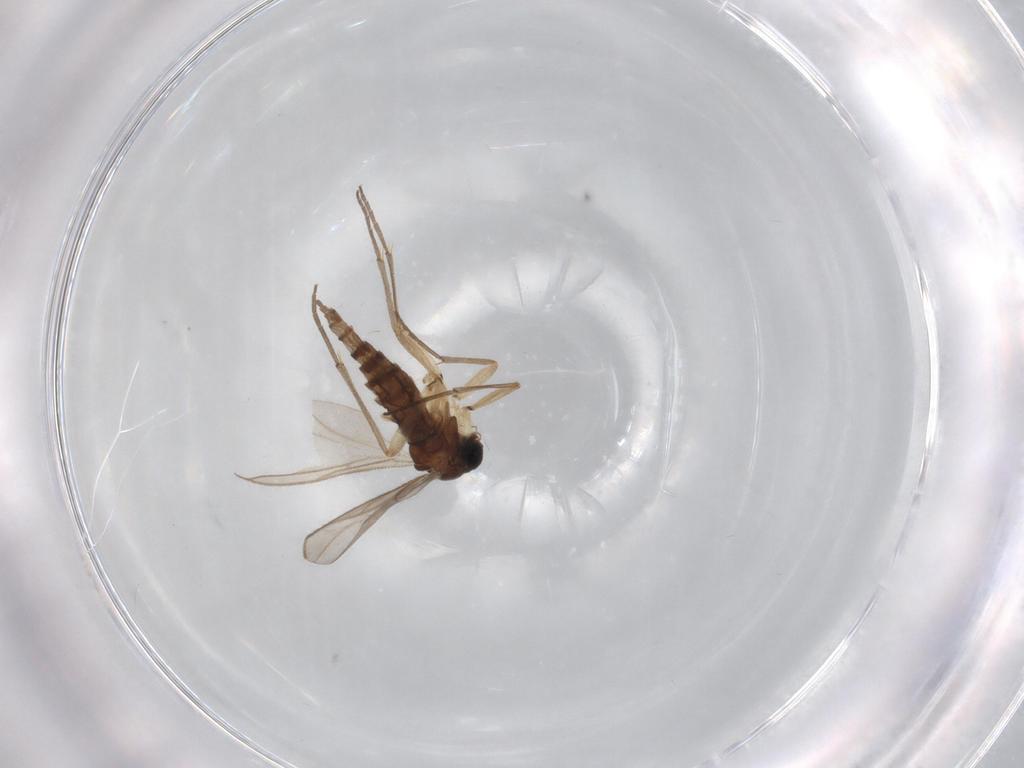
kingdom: Animalia
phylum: Arthropoda
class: Insecta
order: Diptera
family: Sciaridae
